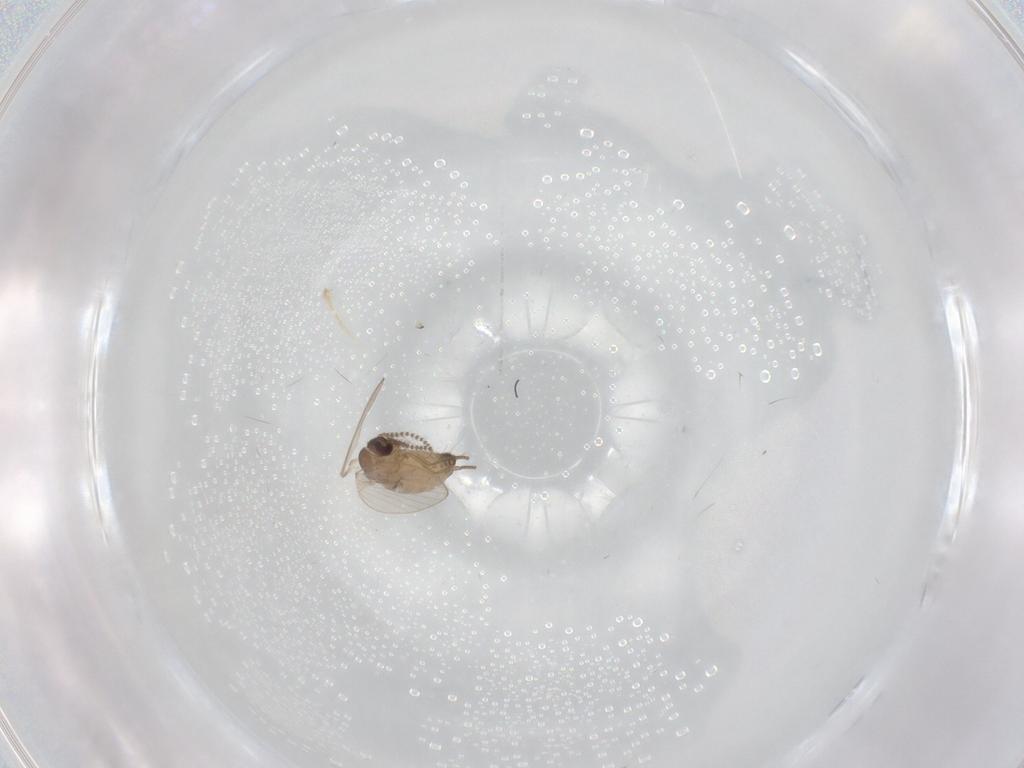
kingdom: Animalia
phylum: Arthropoda
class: Insecta
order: Diptera
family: Psychodidae
